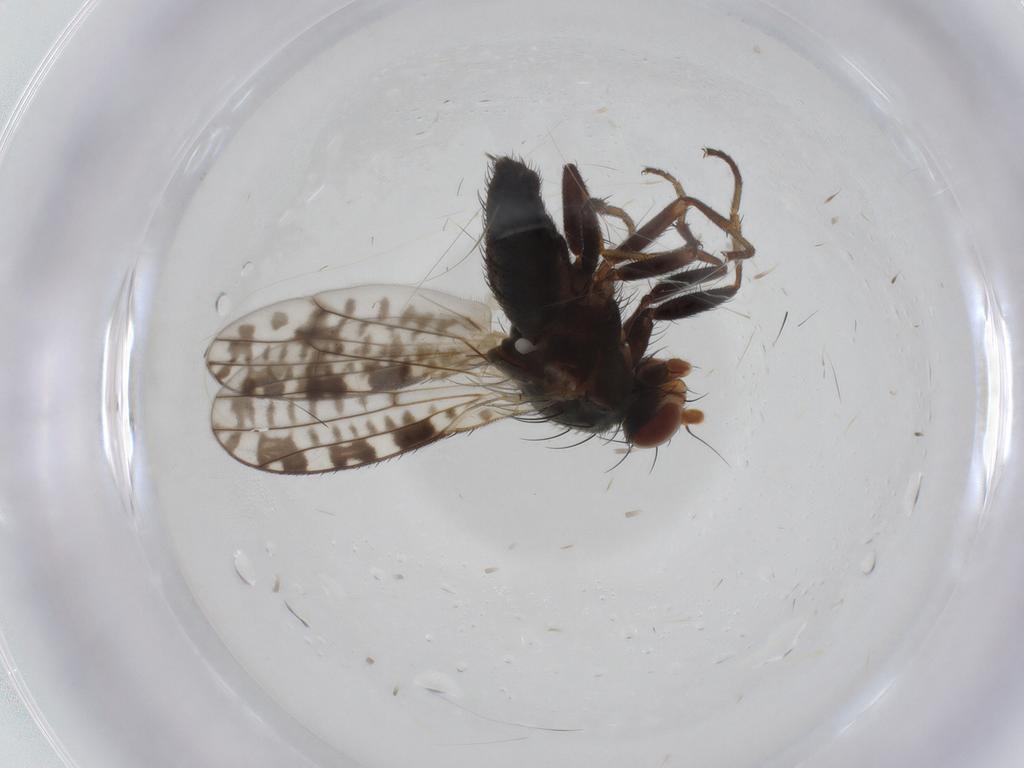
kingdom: Animalia
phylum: Arthropoda
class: Insecta
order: Diptera
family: Heleomyzidae
